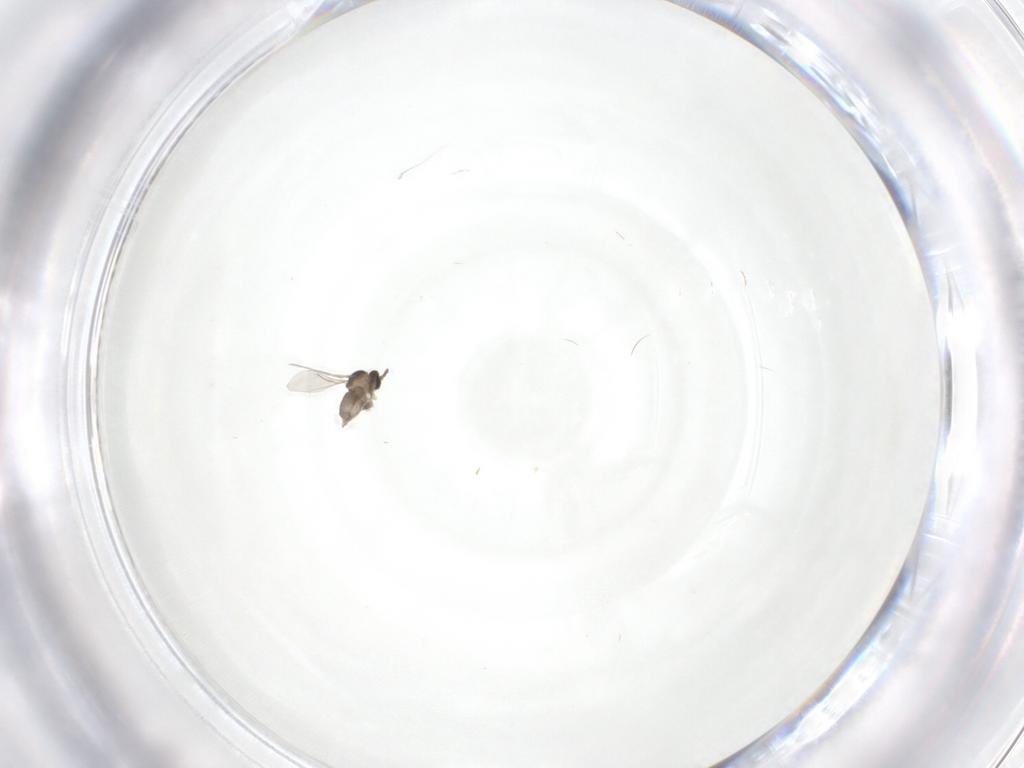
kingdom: Animalia
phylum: Arthropoda
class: Insecta
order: Diptera
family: Cecidomyiidae
